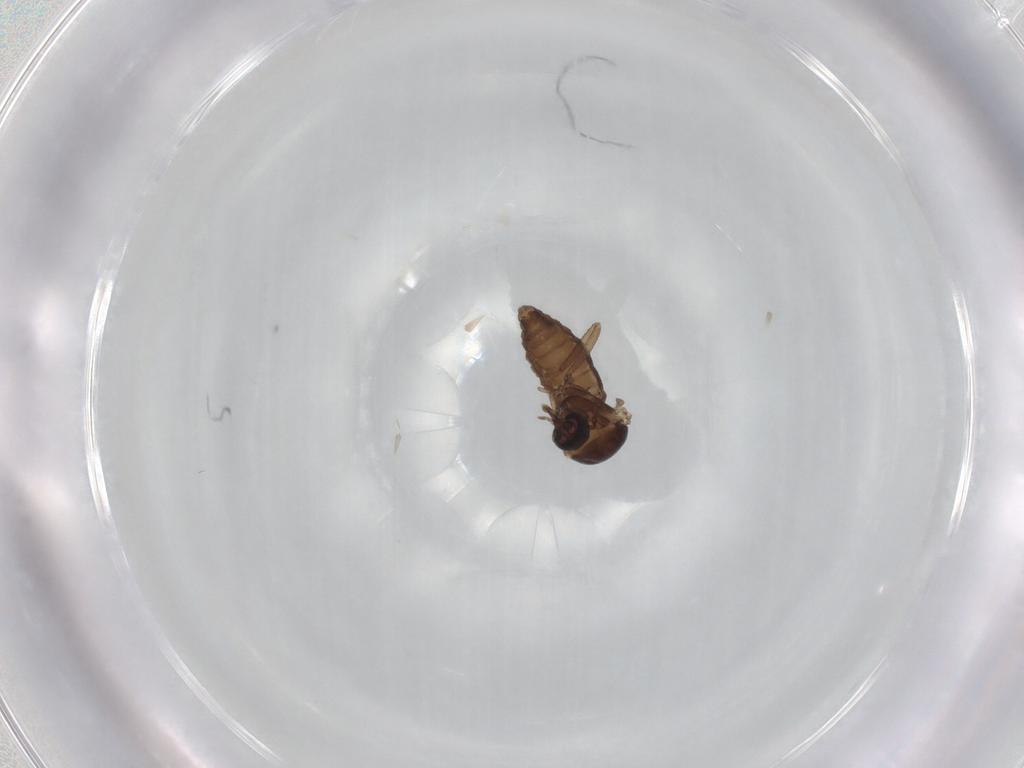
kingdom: Animalia
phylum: Arthropoda
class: Insecta
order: Diptera
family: Ceratopogonidae
